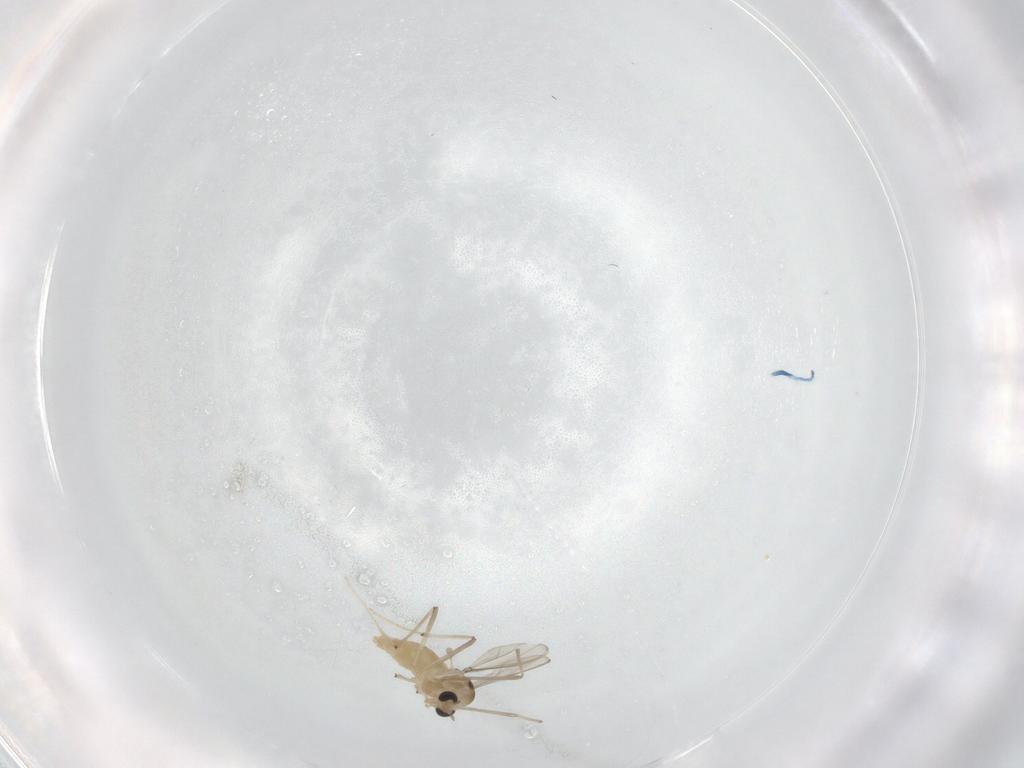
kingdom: Animalia
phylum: Arthropoda
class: Insecta
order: Diptera
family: Chironomidae
